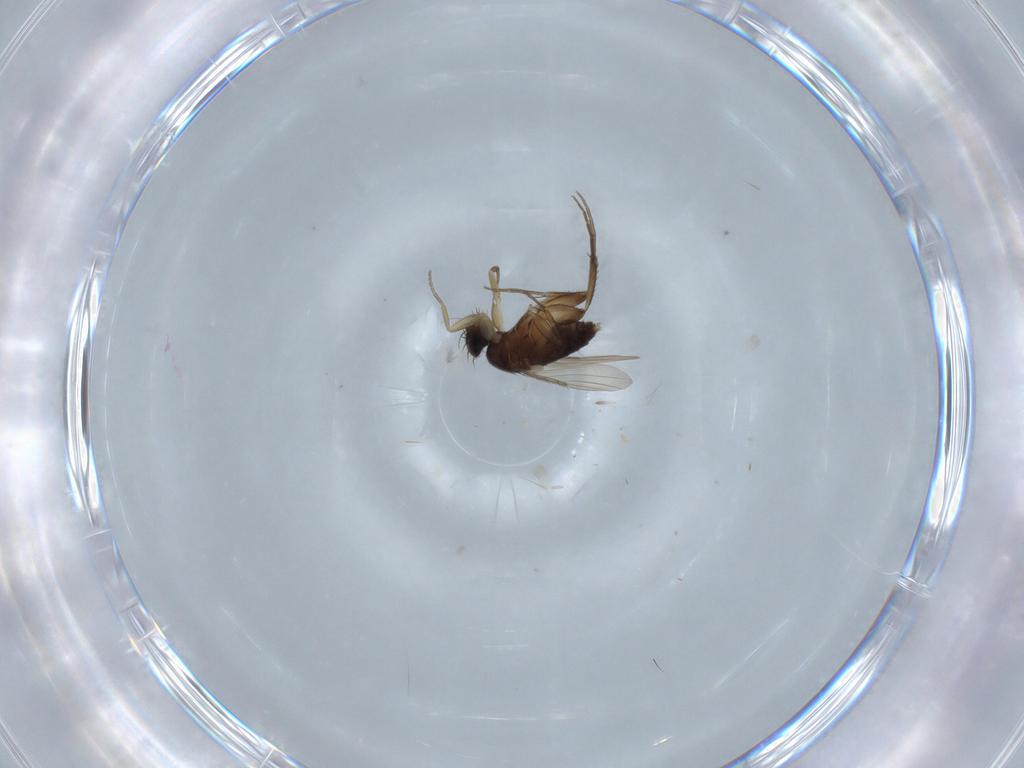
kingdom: Animalia
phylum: Arthropoda
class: Insecta
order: Diptera
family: Phoridae
